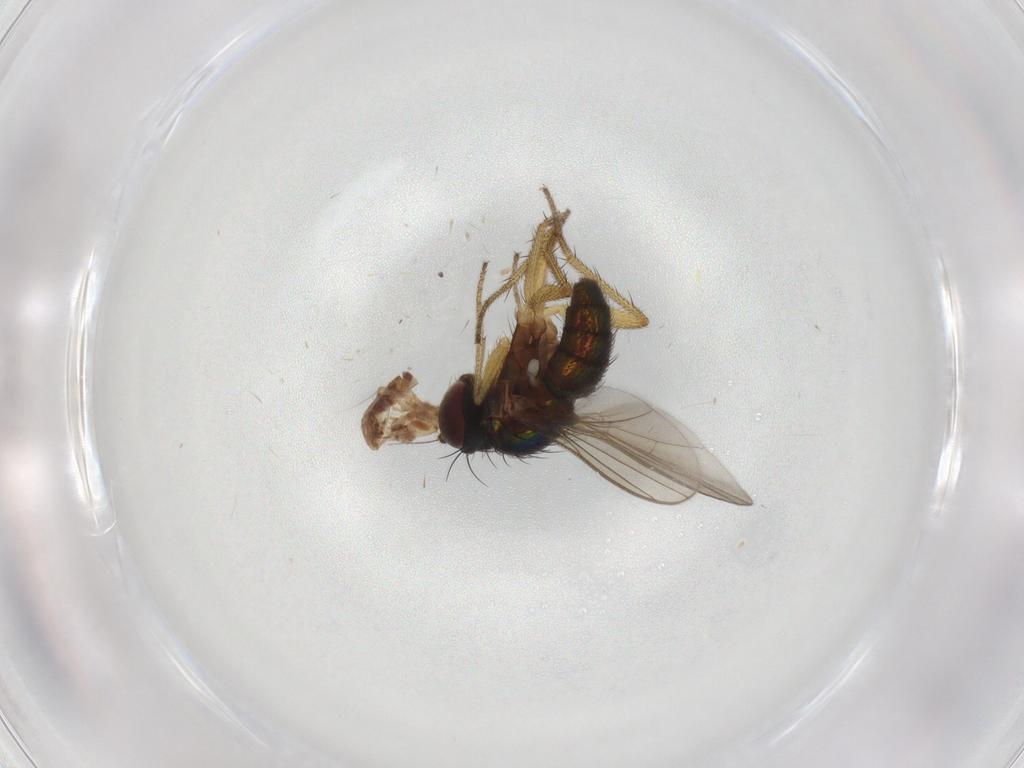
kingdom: Animalia
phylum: Arthropoda
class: Insecta
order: Diptera
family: Dolichopodidae
